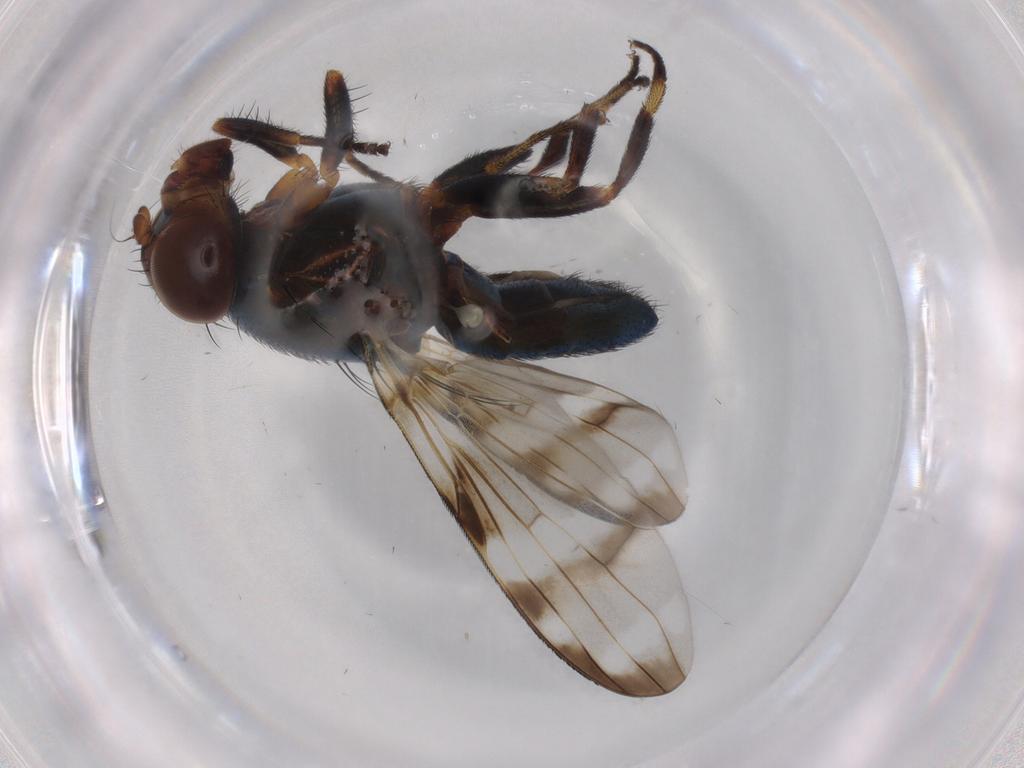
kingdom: Animalia
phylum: Arthropoda
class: Insecta
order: Diptera
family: Ulidiidae
